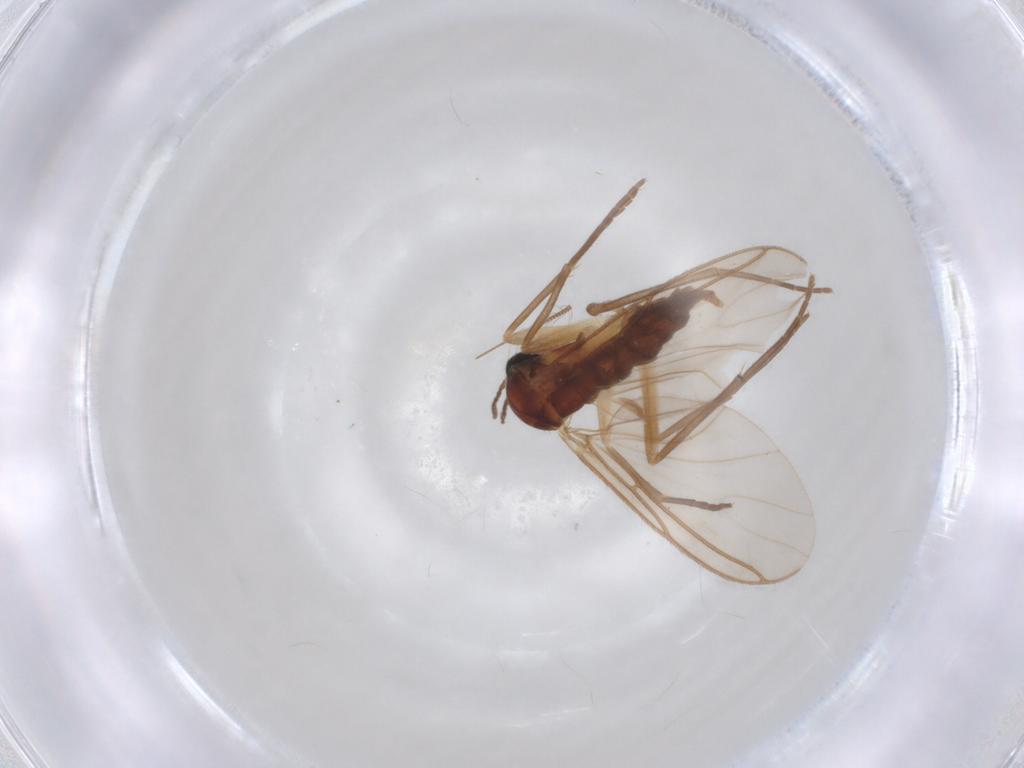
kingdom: Animalia
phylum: Arthropoda
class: Insecta
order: Diptera
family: Chironomidae
